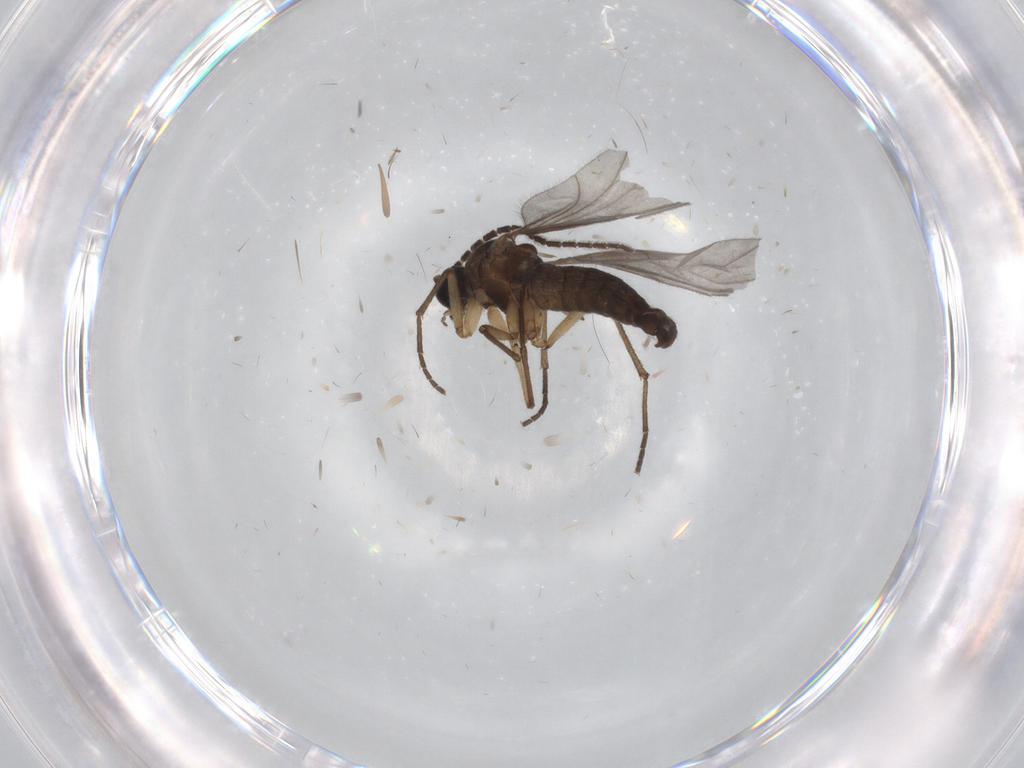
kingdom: Animalia
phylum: Arthropoda
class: Insecta
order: Diptera
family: Sciaridae
